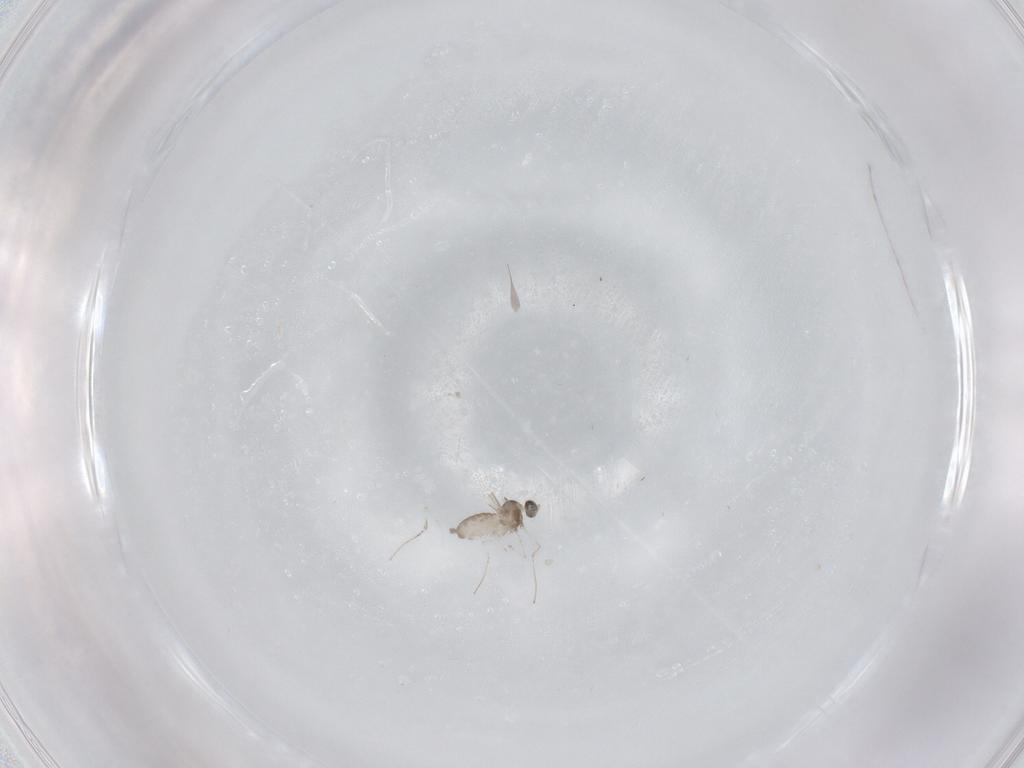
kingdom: Animalia
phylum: Arthropoda
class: Insecta
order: Diptera
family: Cecidomyiidae
